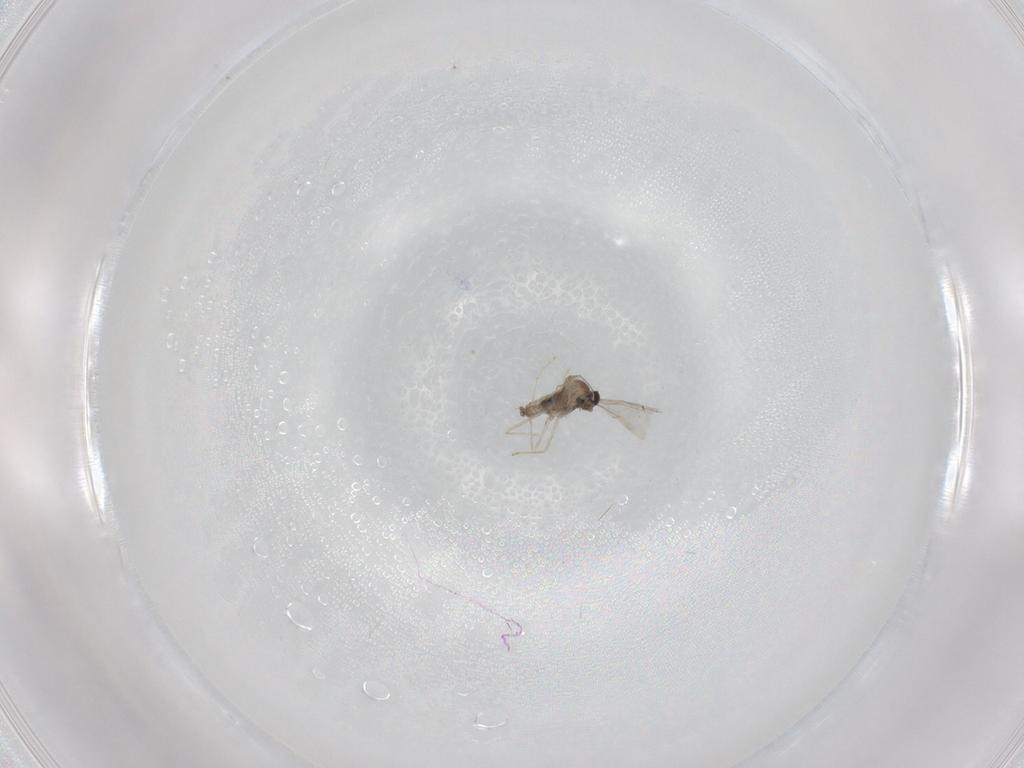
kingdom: Animalia
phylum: Arthropoda
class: Insecta
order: Diptera
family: Cecidomyiidae
